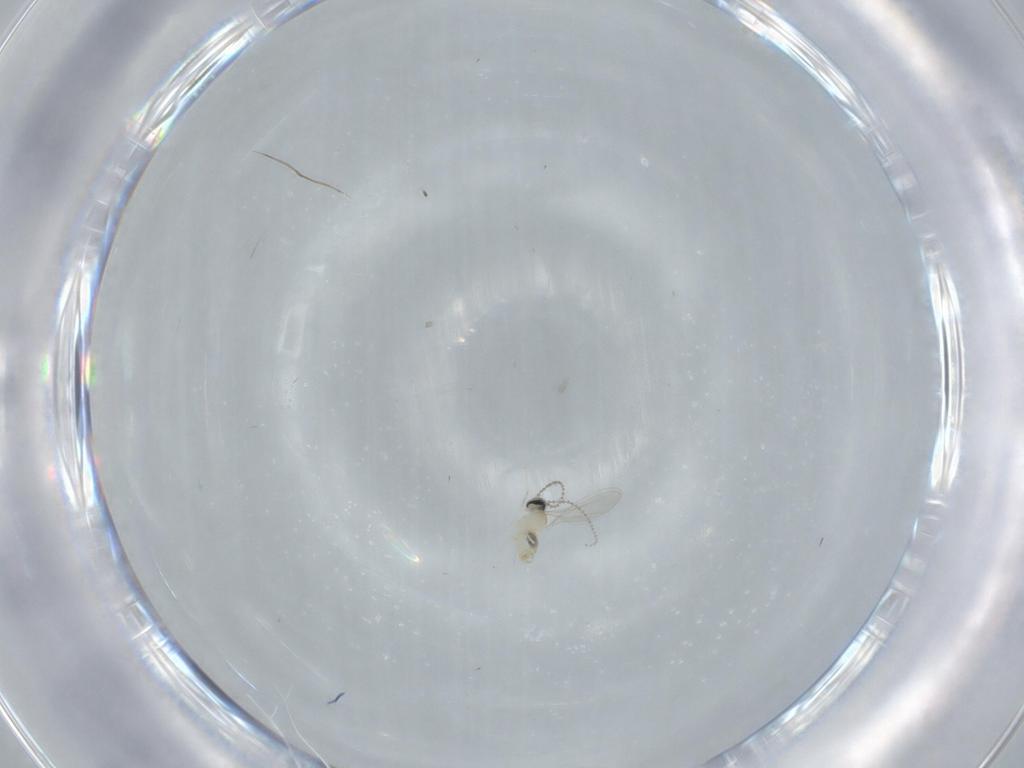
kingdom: Animalia
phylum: Arthropoda
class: Insecta
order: Diptera
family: Cecidomyiidae
